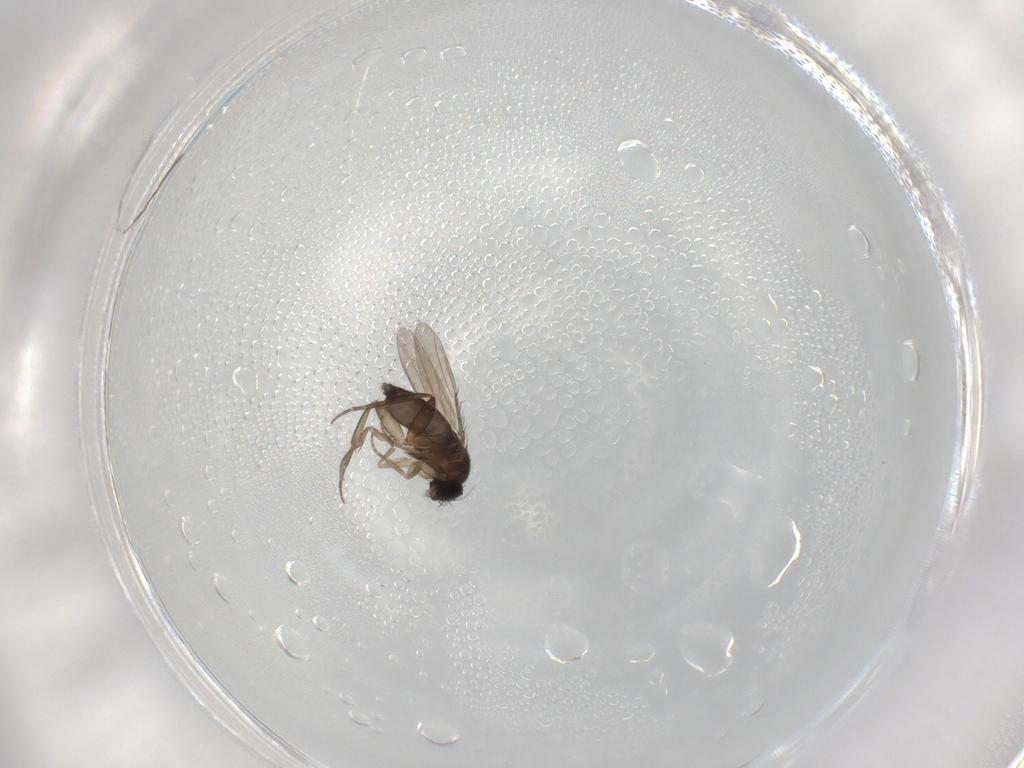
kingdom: Animalia
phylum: Arthropoda
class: Insecta
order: Diptera
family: Phoridae
